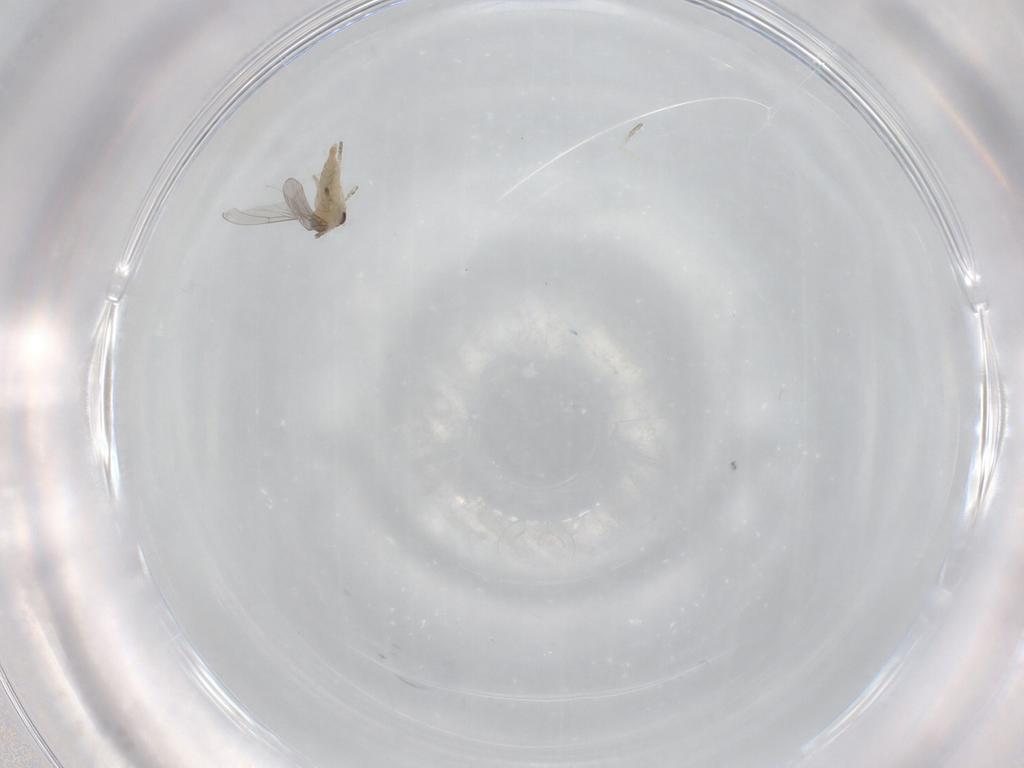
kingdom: Animalia
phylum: Arthropoda
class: Insecta
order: Diptera
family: Cecidomyiidae
